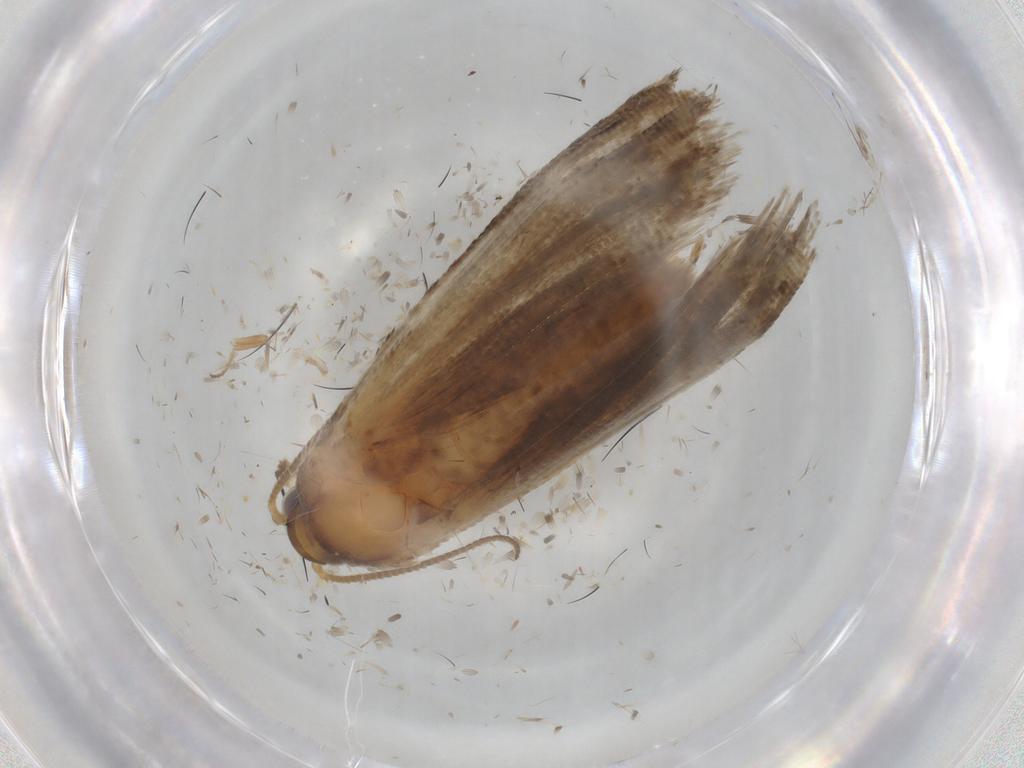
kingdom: Animalia
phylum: Arthropoda
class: Insecta
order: Lepidoptera
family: Tortricidae
